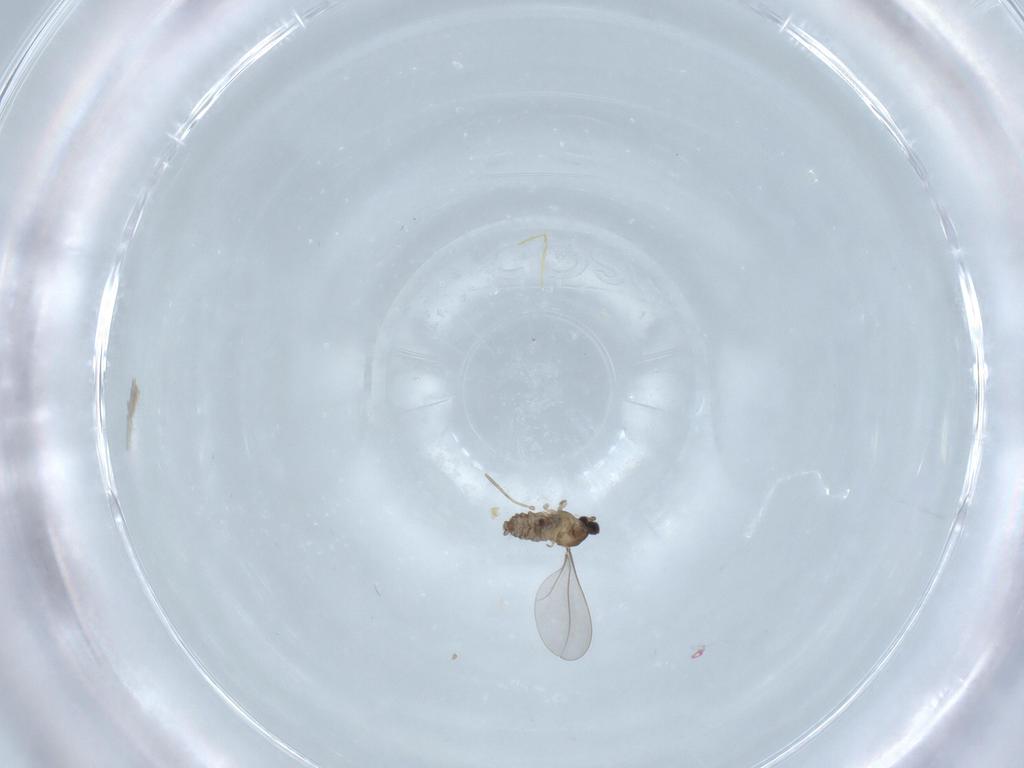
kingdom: Animalia
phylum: Arthropoda
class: Insecta
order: Diptera
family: Cecidomyiidae
